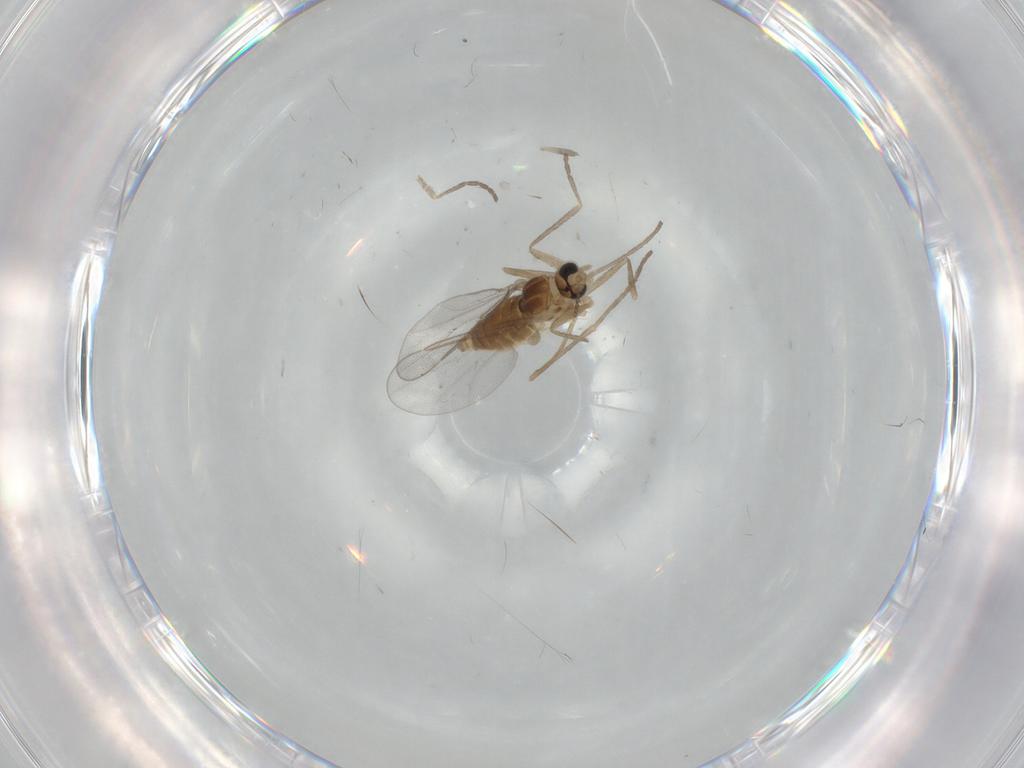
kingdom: Animalia
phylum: Arthropoda
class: Insecta
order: Diptera
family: Cecidomyiidae
